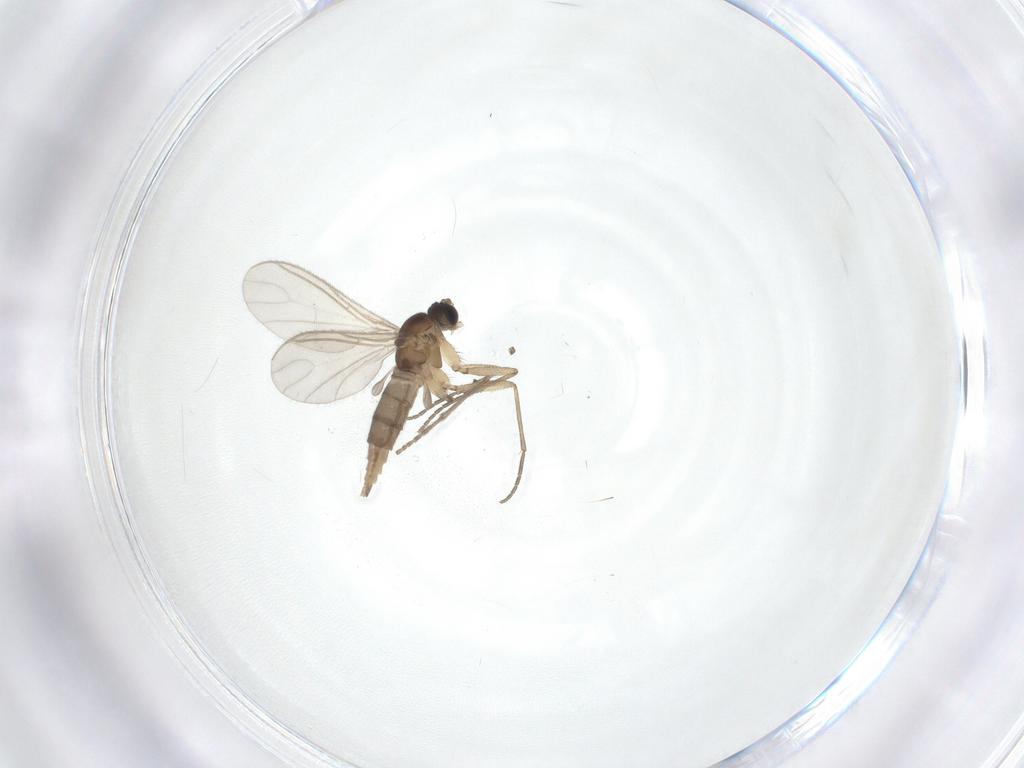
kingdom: Animalia
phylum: Arthropoda
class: Insecta
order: Diptera
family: Sciaridae
